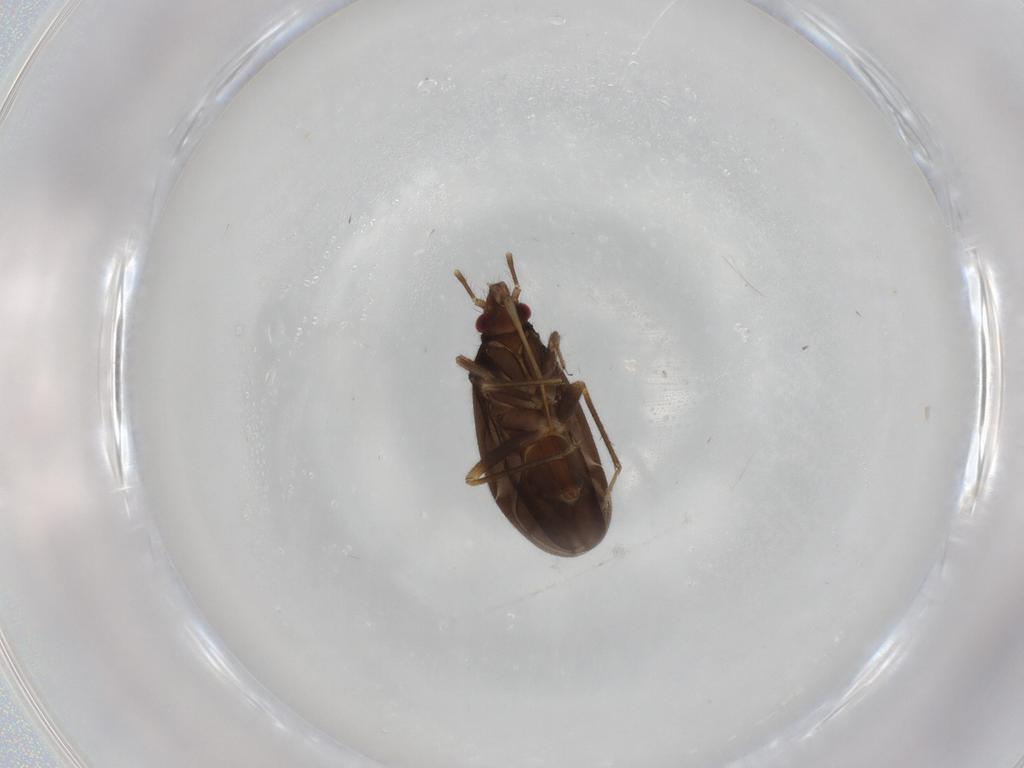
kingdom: Animalia
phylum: Arthropoda
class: Insecta
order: Hemiptera
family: Ceratocombidae
